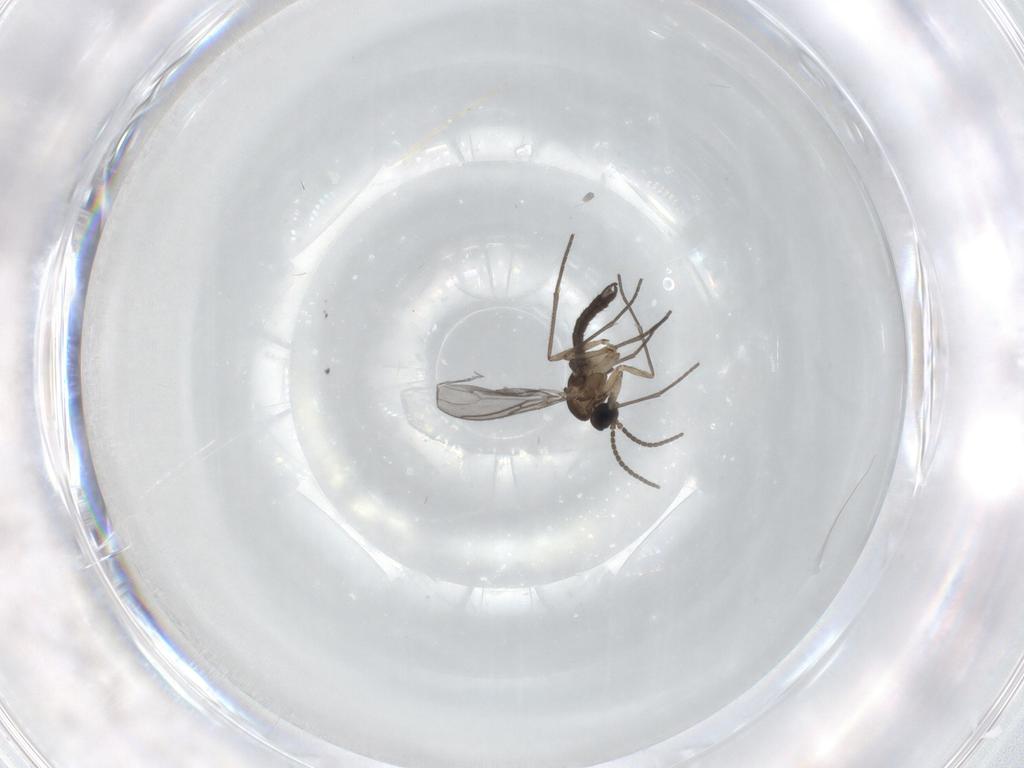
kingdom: Animalia
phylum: Arthropoda
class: Insecta
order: Diptera
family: Sciaridae
